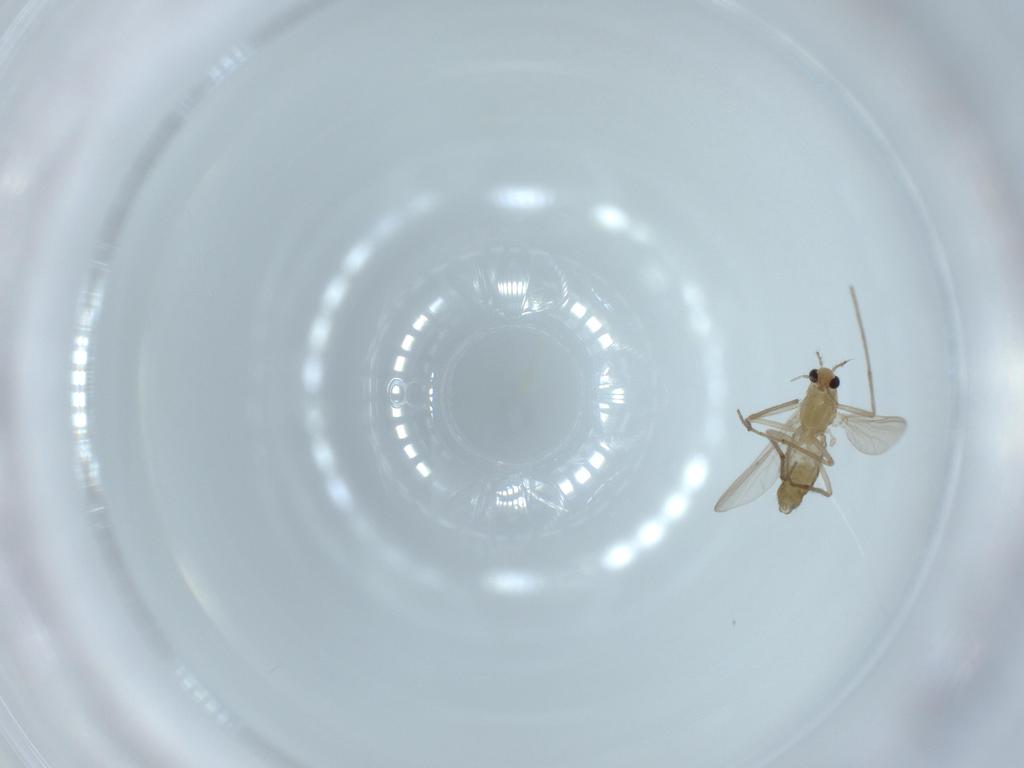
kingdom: Animalia
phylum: Arthropoda
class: Insecta
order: Diptera
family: Chironomidae
